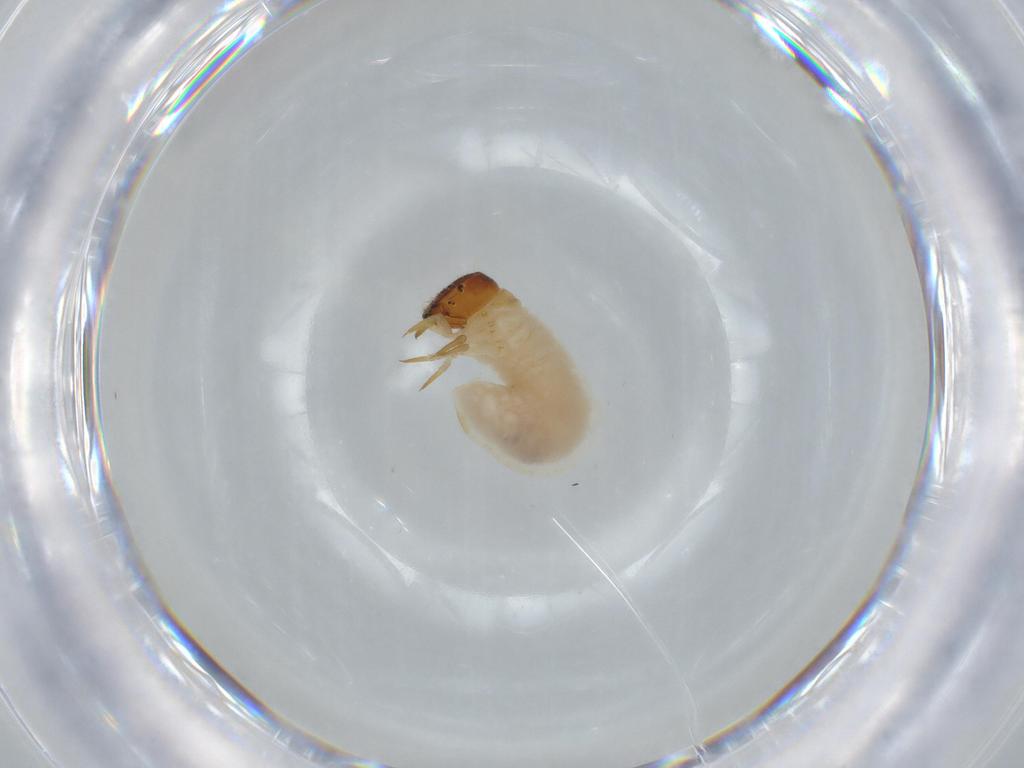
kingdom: Animalia
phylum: Arthropoda
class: Insecta
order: Coleoptera
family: Chrysomelidae
